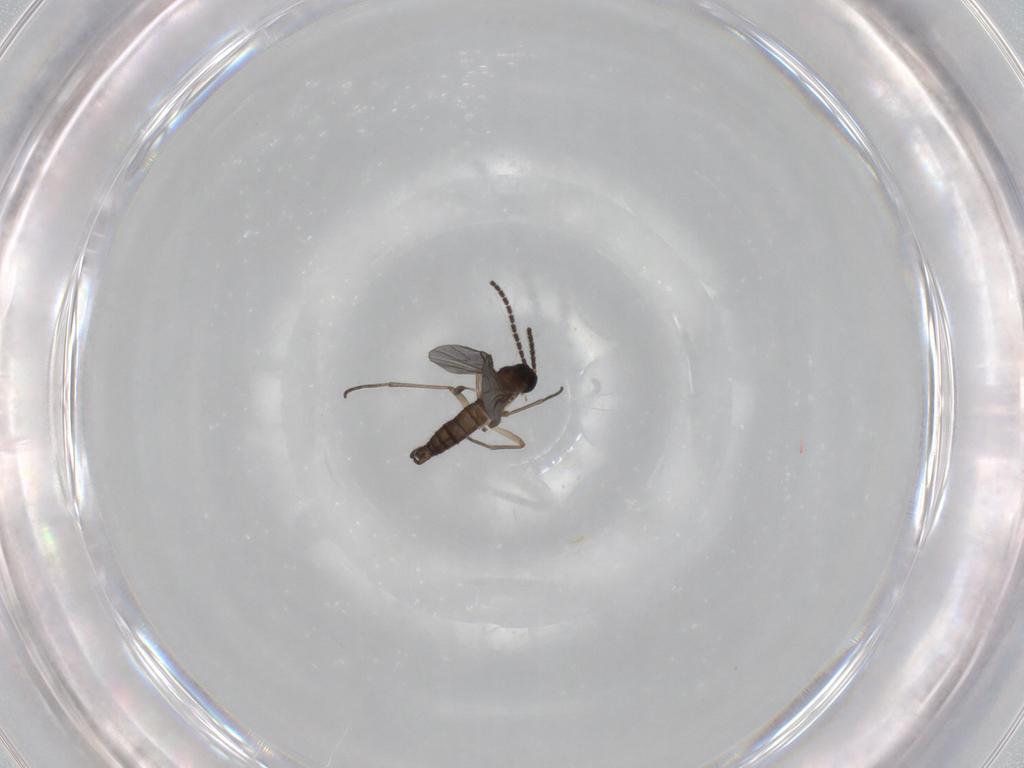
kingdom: Animalia
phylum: Arthropoda
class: Insecta
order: Diptera
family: Sciaridae
